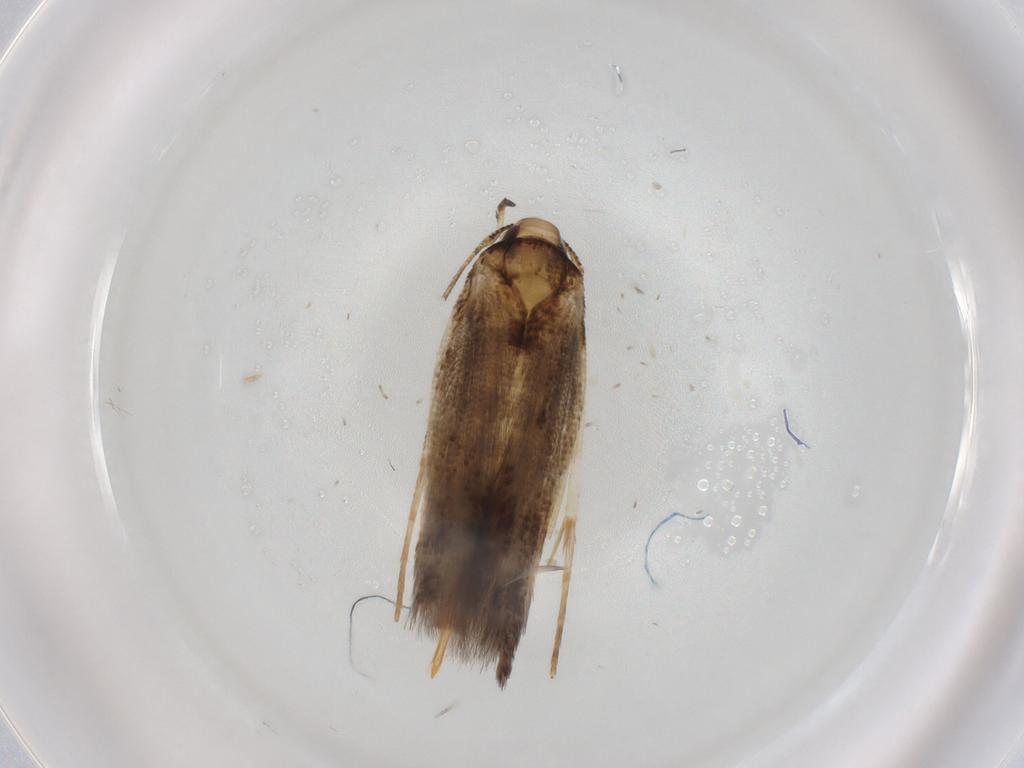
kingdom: Animalia
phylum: Arthropoda
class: Insecta
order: Lepidoptera
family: Cosmopterigidae
